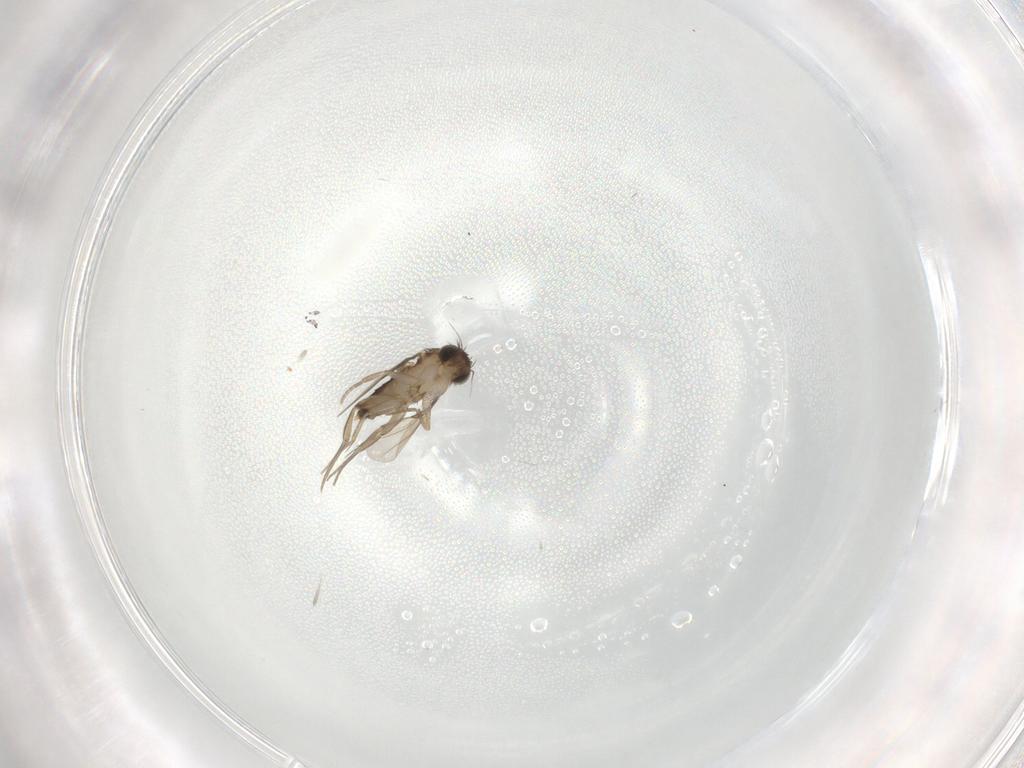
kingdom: Animalia
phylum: Arthropoda
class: Insecta
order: Diptera
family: Phoridae
